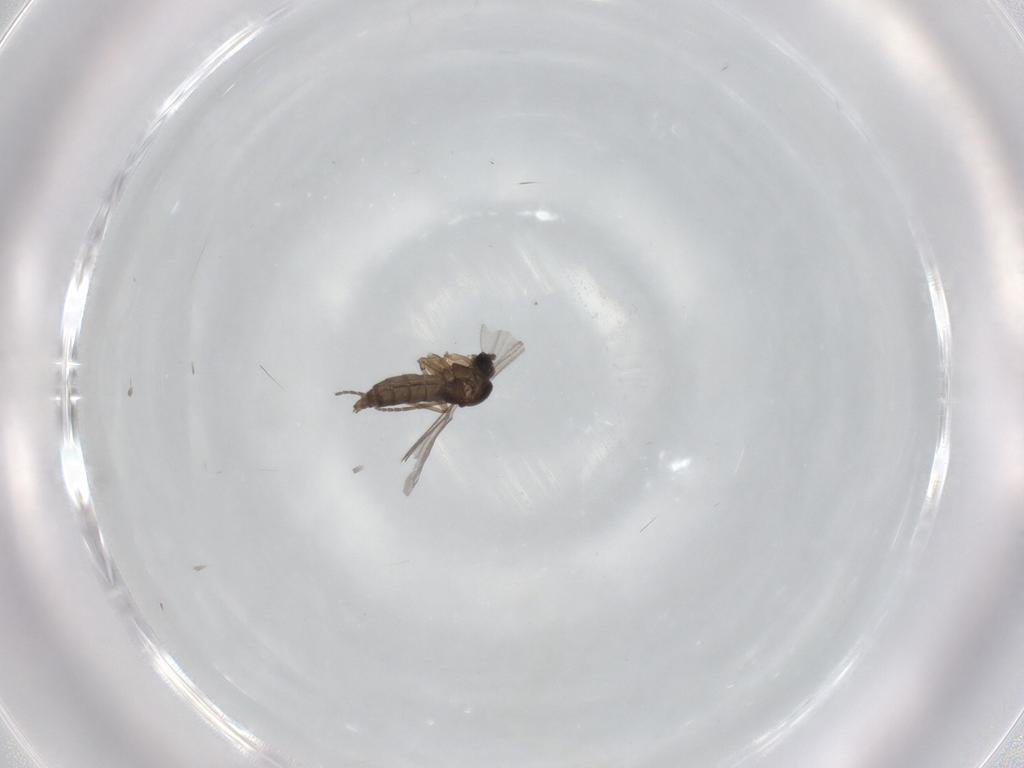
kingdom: Animalia
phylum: Arthropoda
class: Insecta
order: Diptera
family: Sciaridae
